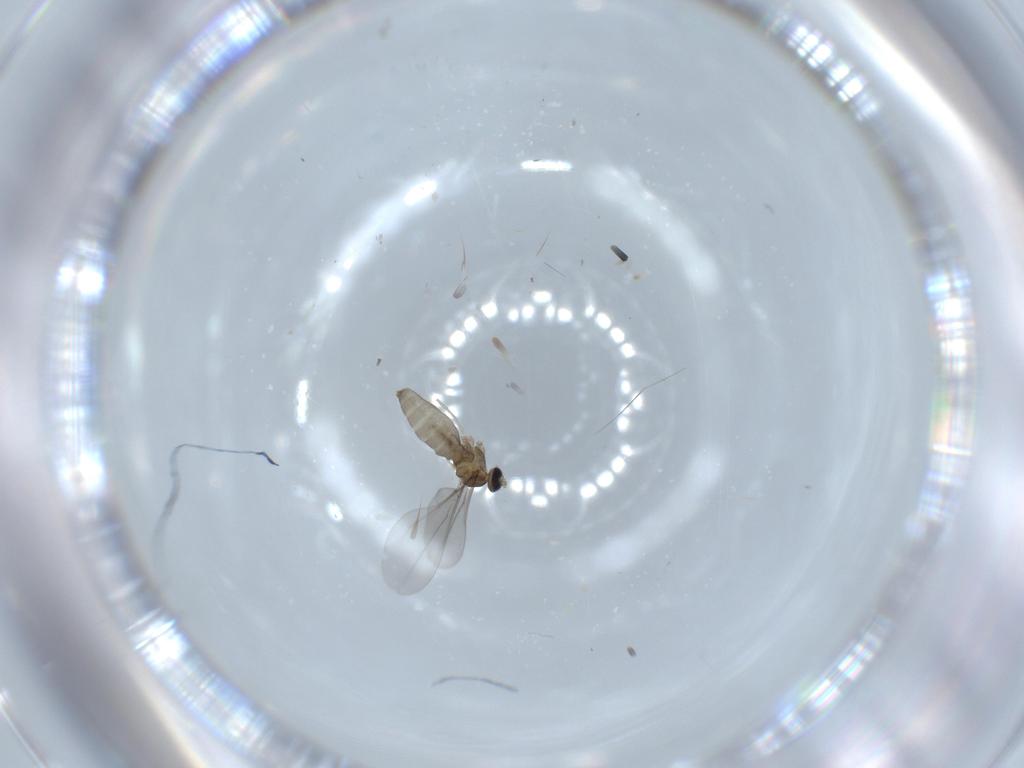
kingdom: Animalia
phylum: Arthropoda
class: Insecta
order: Diptera
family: Cecidomyiidae
